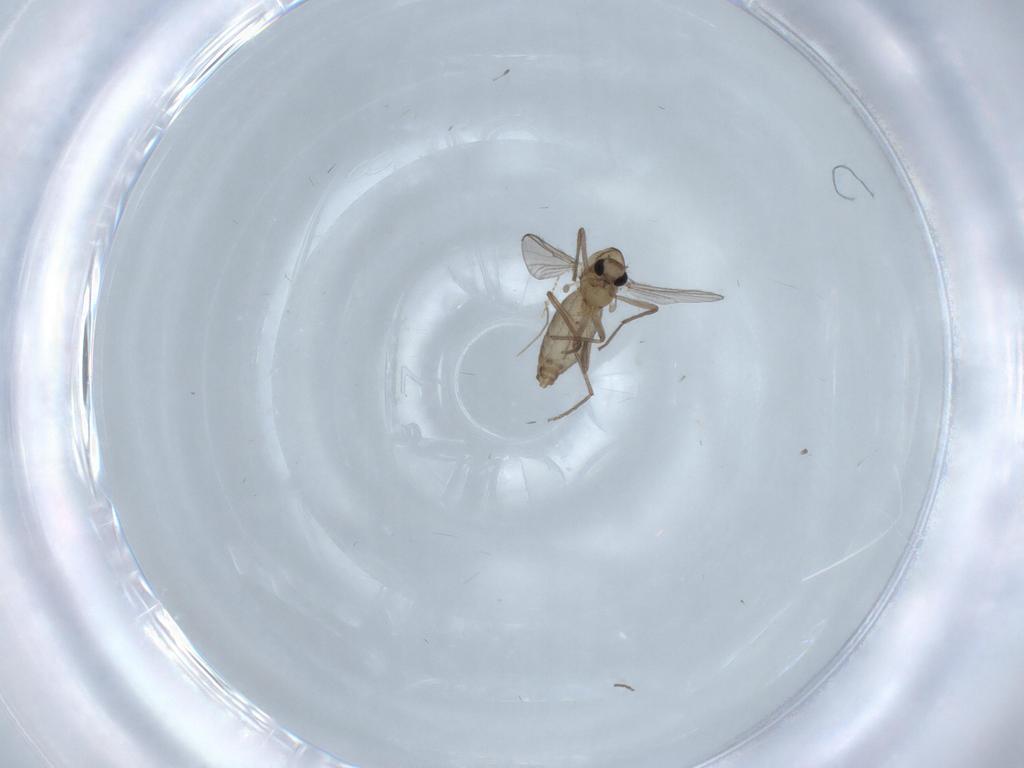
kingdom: Animalia
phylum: Arthropoda
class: Insecta
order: Diptera
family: Chironomidae
